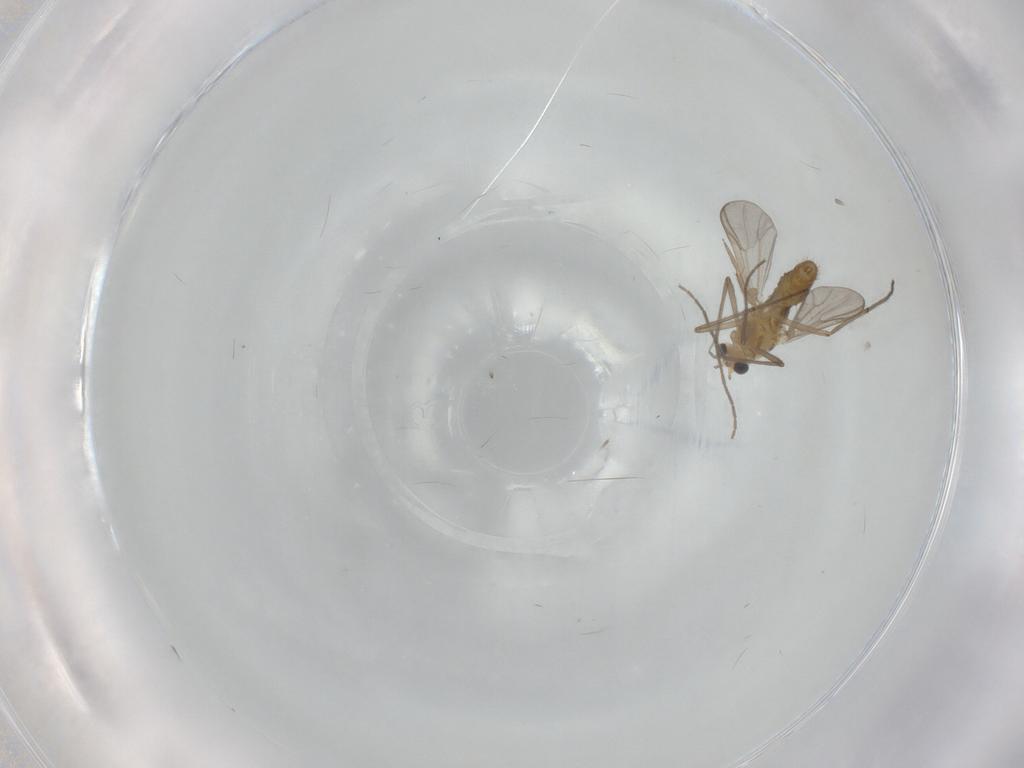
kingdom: Animalia
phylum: Arthropoda
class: Insecta
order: Diptera
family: Chironomidae
